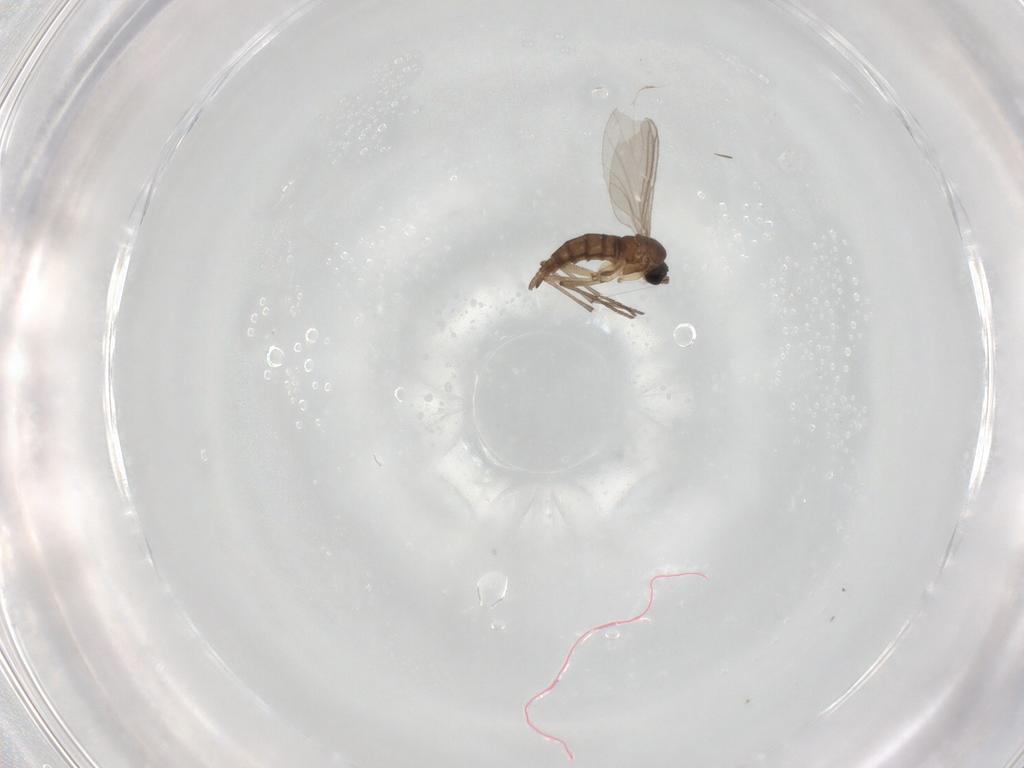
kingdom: Animalia
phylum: Arthropoda
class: Insecta
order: Diptera
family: Sciaridae
